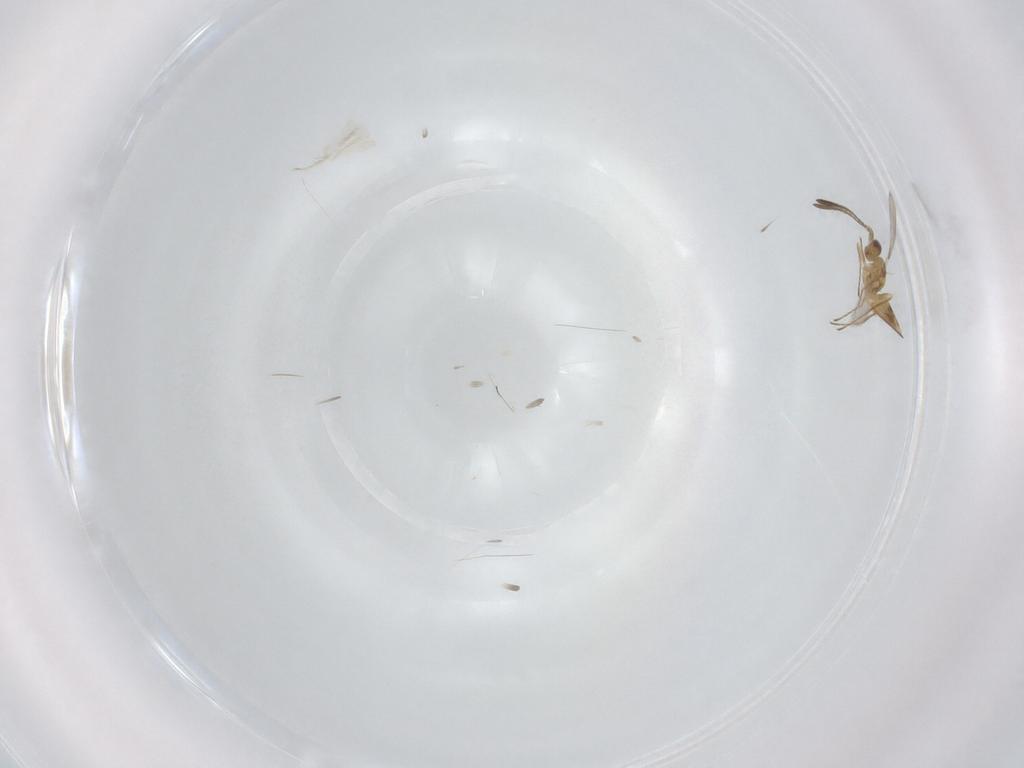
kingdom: Animalia
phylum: Arthropoda
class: Insecta
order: Hymenoptera
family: Mymaridae
